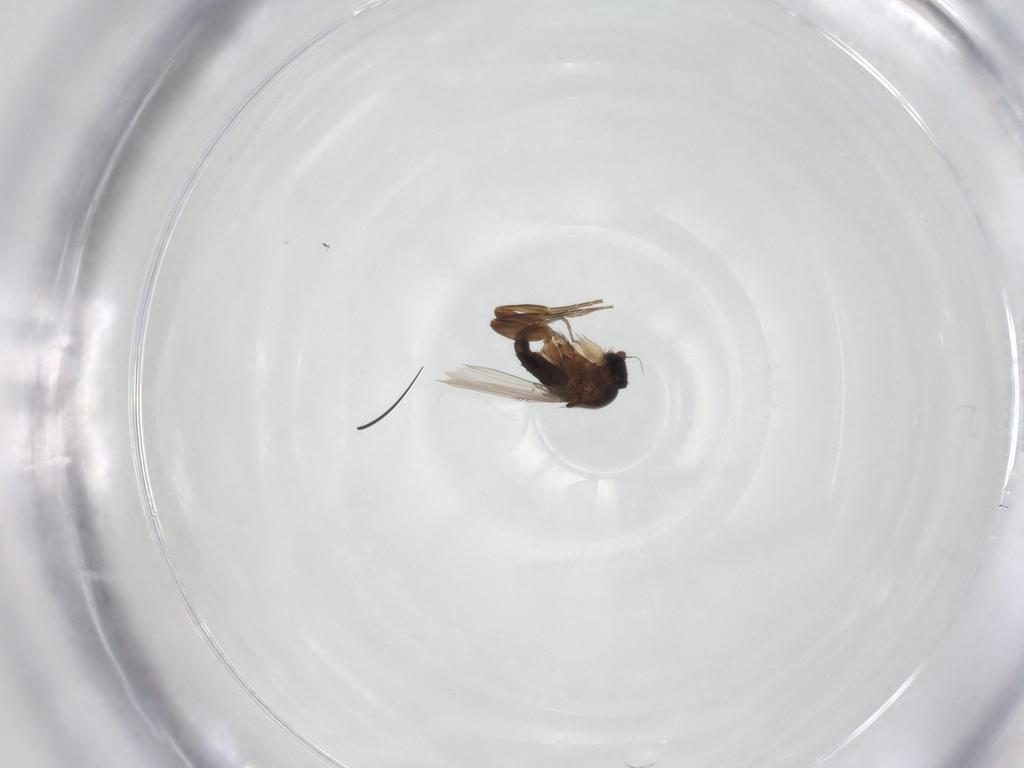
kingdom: Animalia
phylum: Arthropoda
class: Insecta
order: Diptera
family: Phoridae
